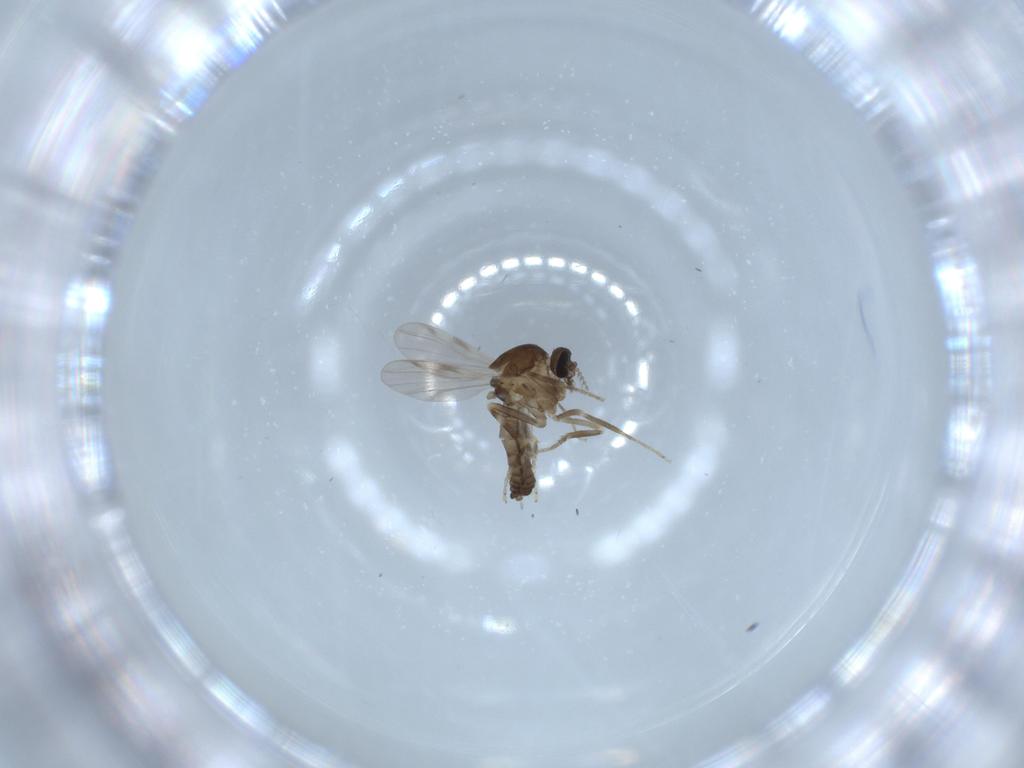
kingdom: Animalia
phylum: Arthropoda
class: Insecta
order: Diptera
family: Ceratopogonidae
